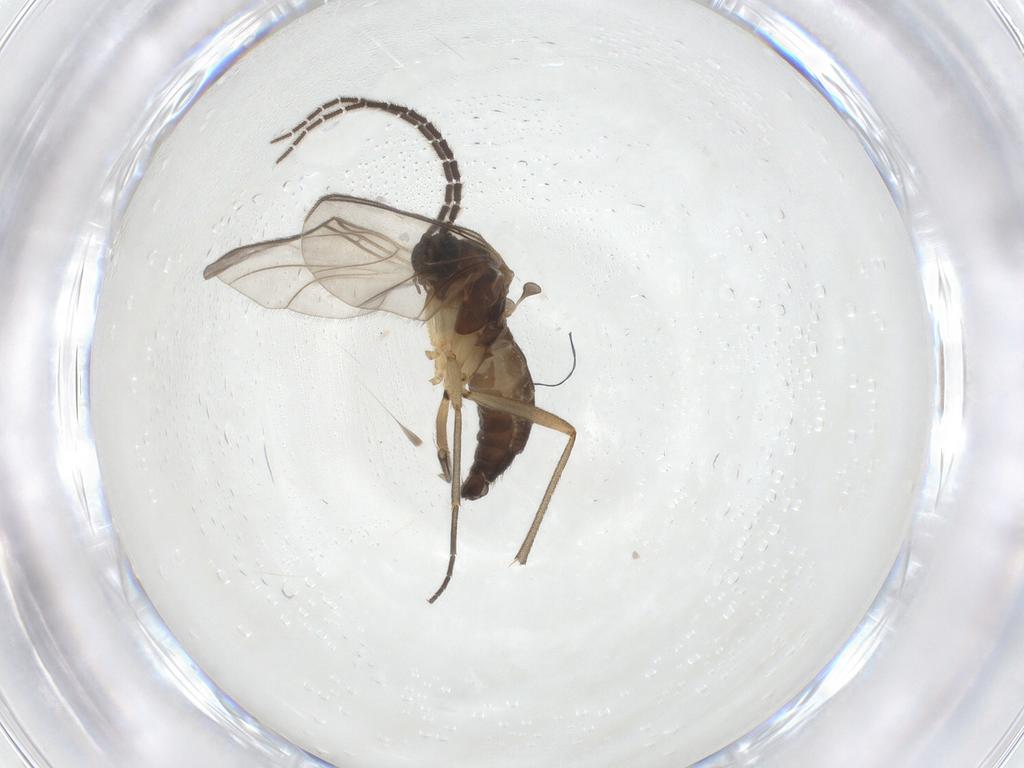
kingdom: Animalia
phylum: Arthropoda
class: Insecta
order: Diptera
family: Sciaridae
